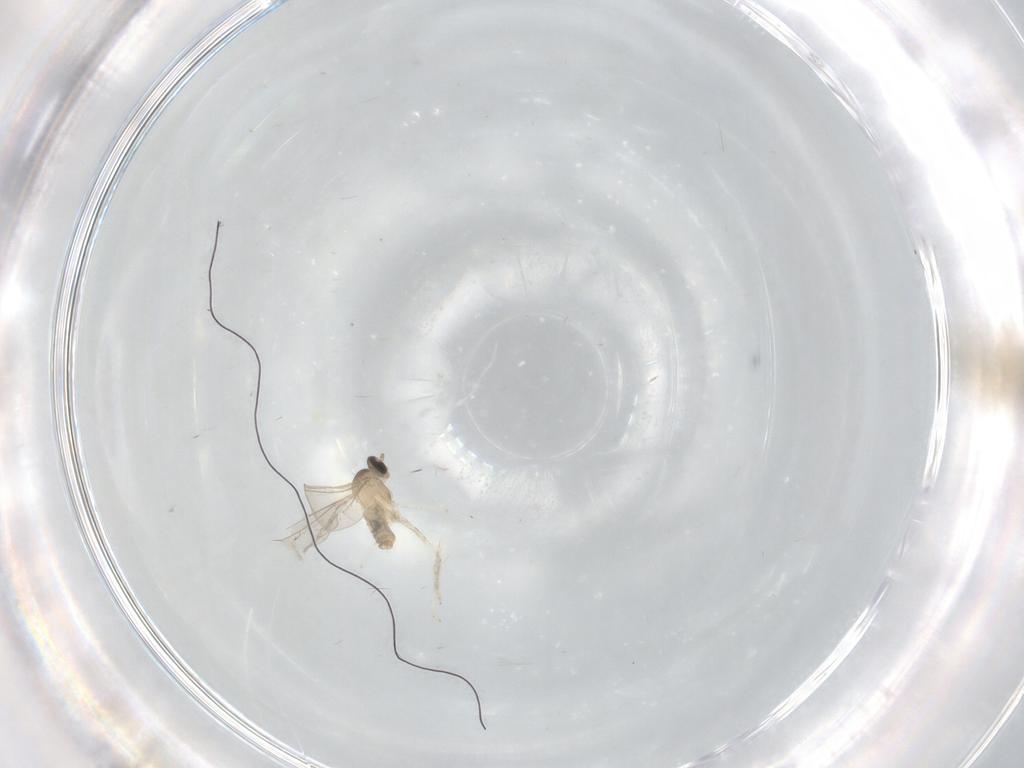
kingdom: Animalia
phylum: Arthropoda
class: Insecta
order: Diptera
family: Cecidomyiidae
